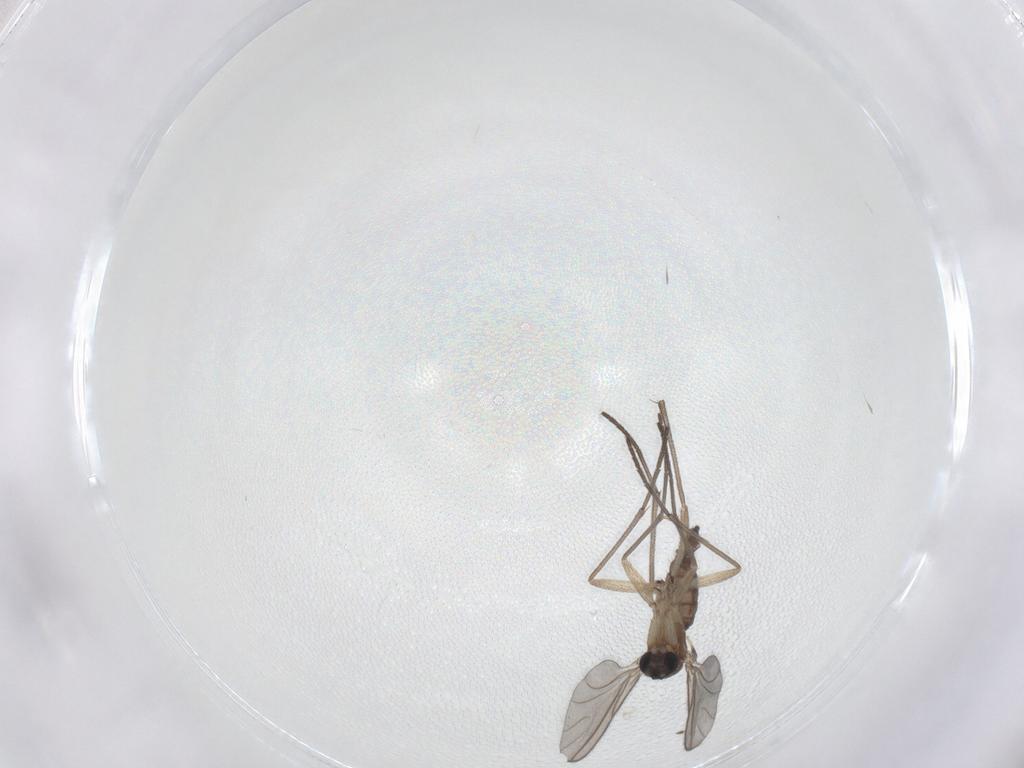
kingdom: Animalia
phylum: Arthropoda
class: Insecta
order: Diptera
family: Sciaridae
